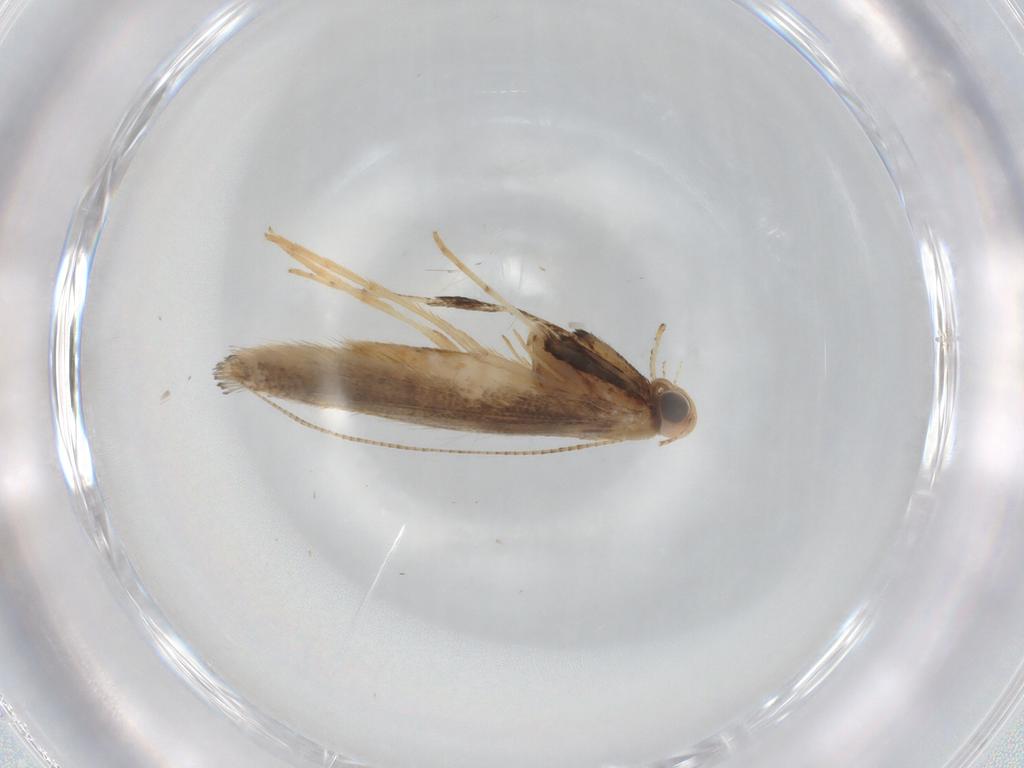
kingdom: Animalia
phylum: Arthropoda
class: Insecta
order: Lepidoptera
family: Gracillariidae
